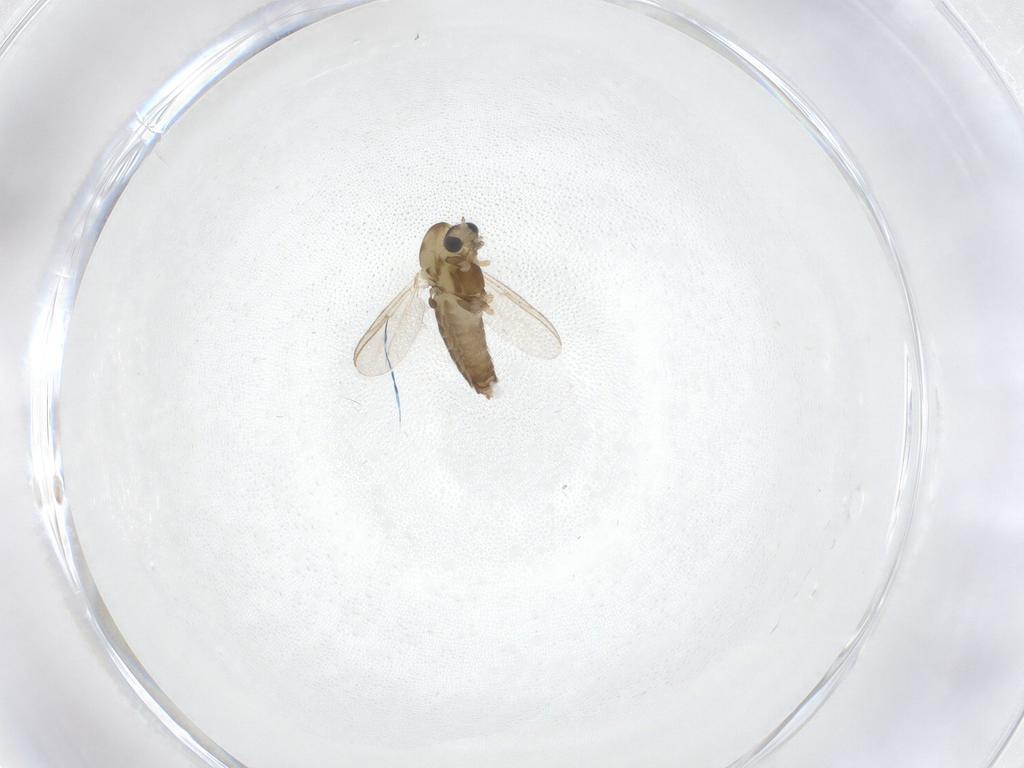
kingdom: Animalia
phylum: Arthropoda
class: Insecta
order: Diptera
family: Chironomidae
